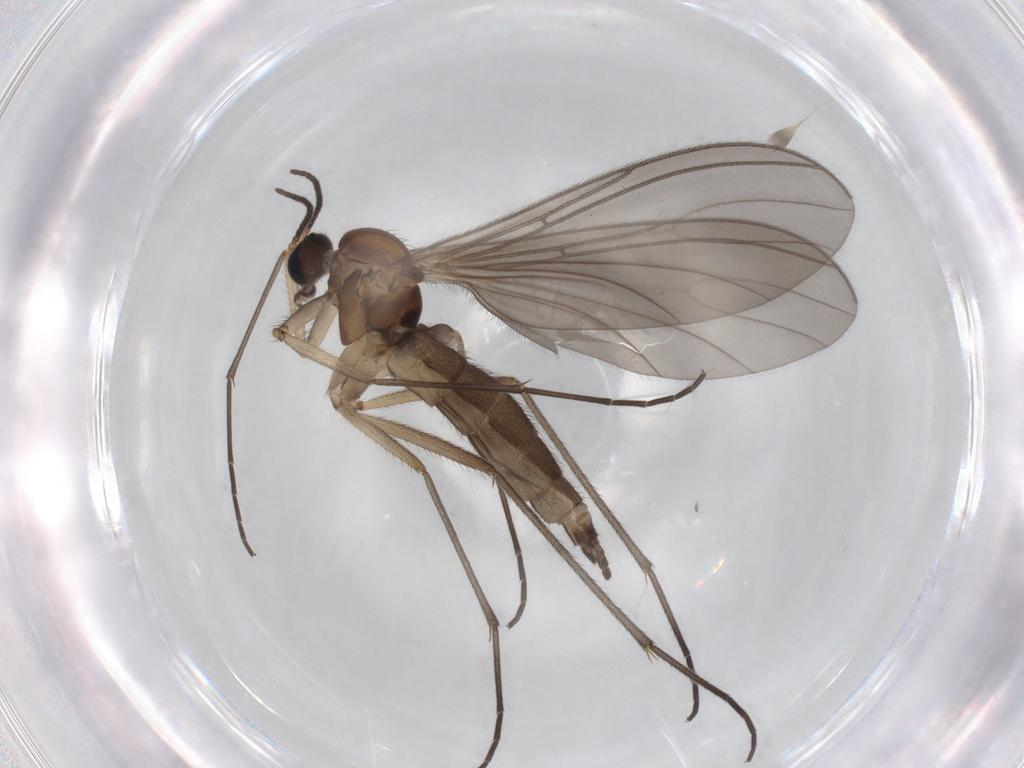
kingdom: Animalia
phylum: Arthropoda
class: Insecta
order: Diptera
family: Sciaridae
